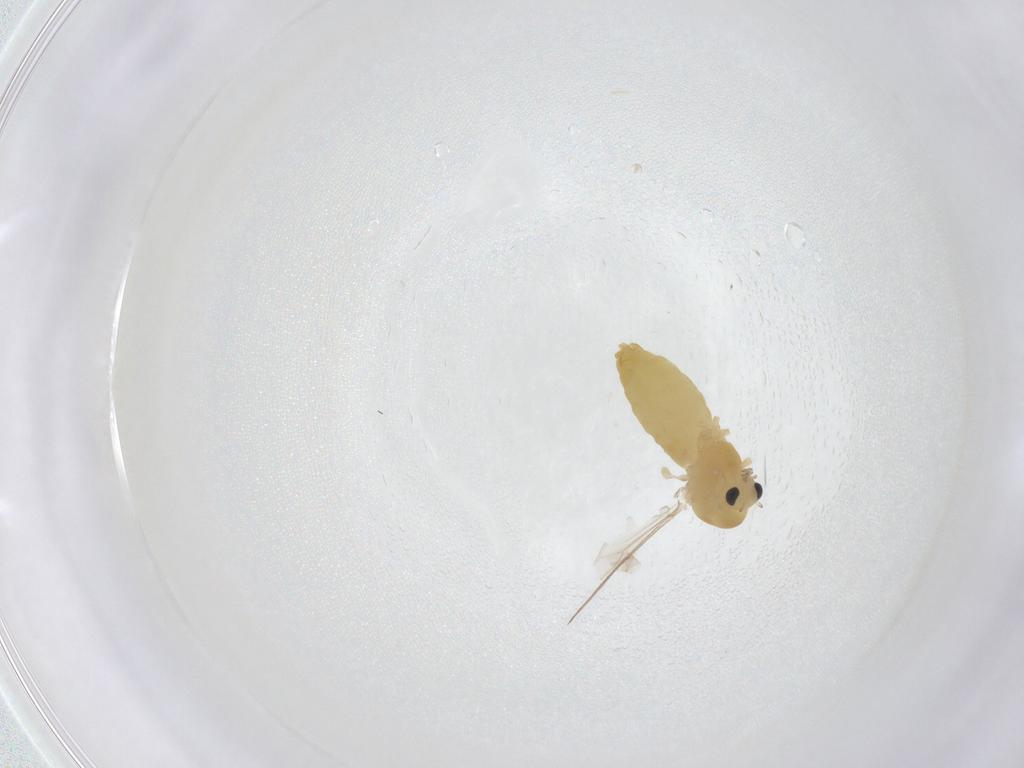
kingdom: Animalia
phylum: Arthropoda
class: Insecta
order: Diptera
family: Chironomidae
